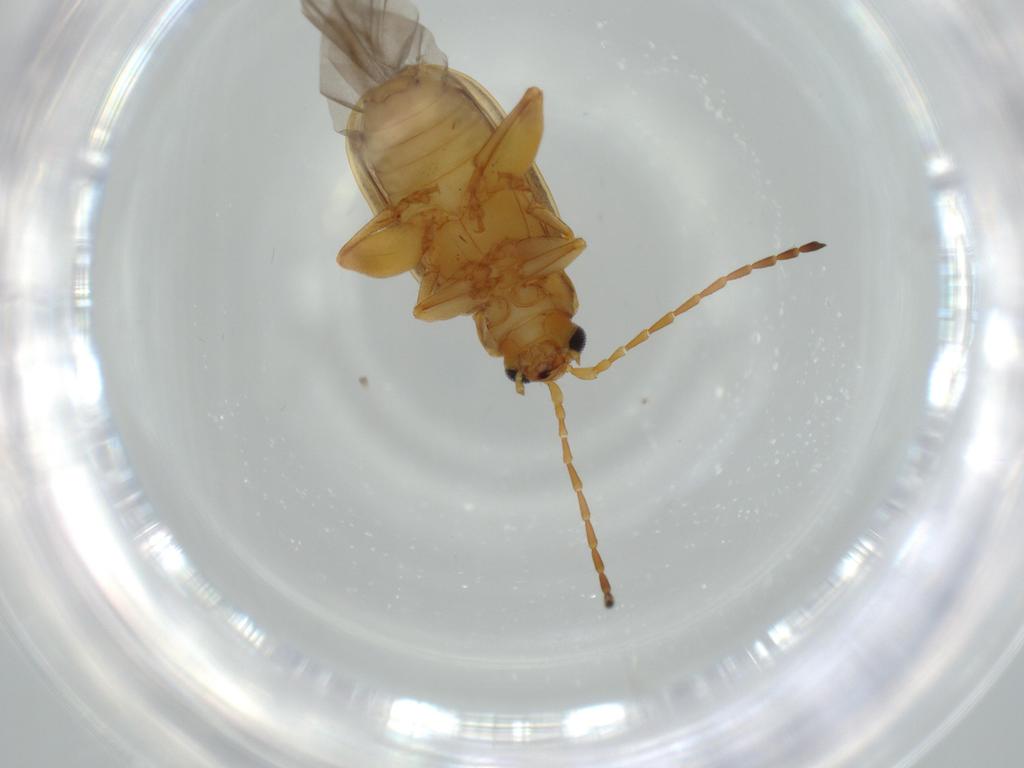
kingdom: Animalia
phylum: Arthropoda
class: Insecta
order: Coleoptera
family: Chrysomelidae
